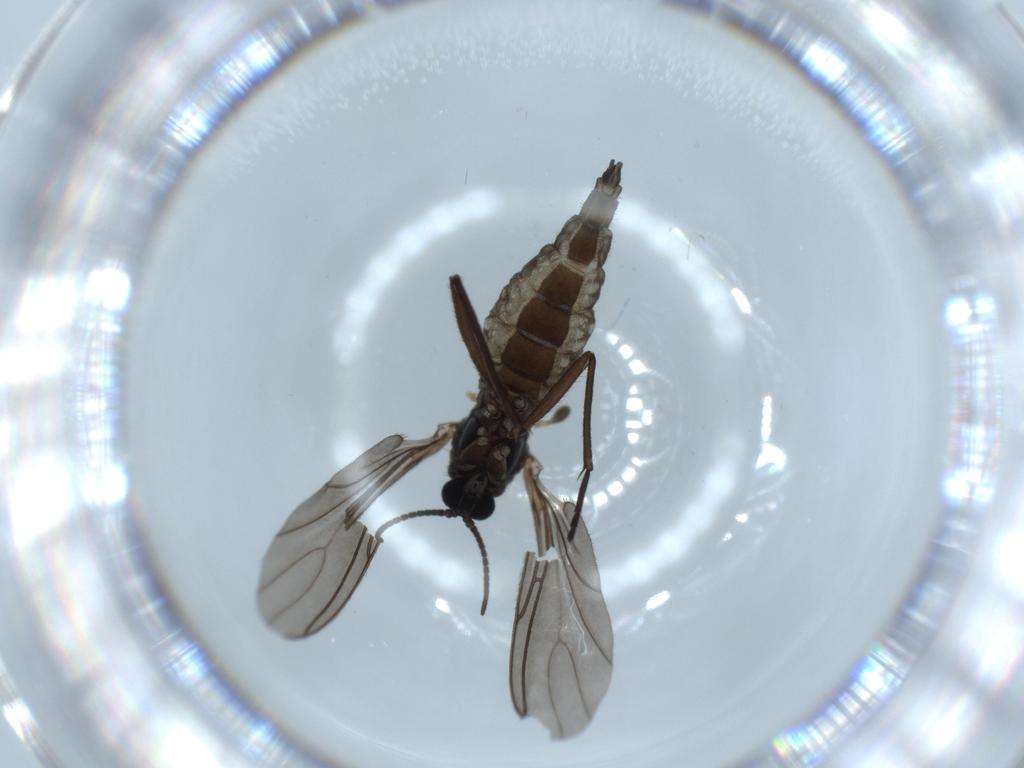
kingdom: Animalia
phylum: Arthropoda
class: Insecta
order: Diptera
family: Sciaridae
